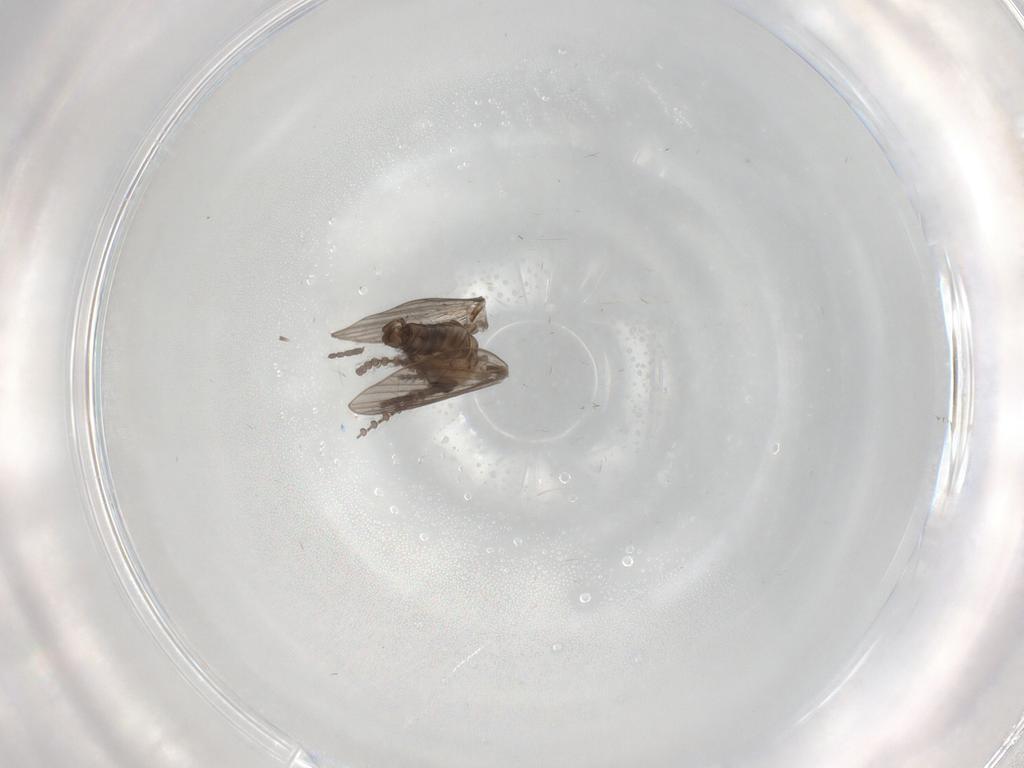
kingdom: Animalia
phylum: Arthropoda
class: Insecta
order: Diptera
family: Psychodidae
